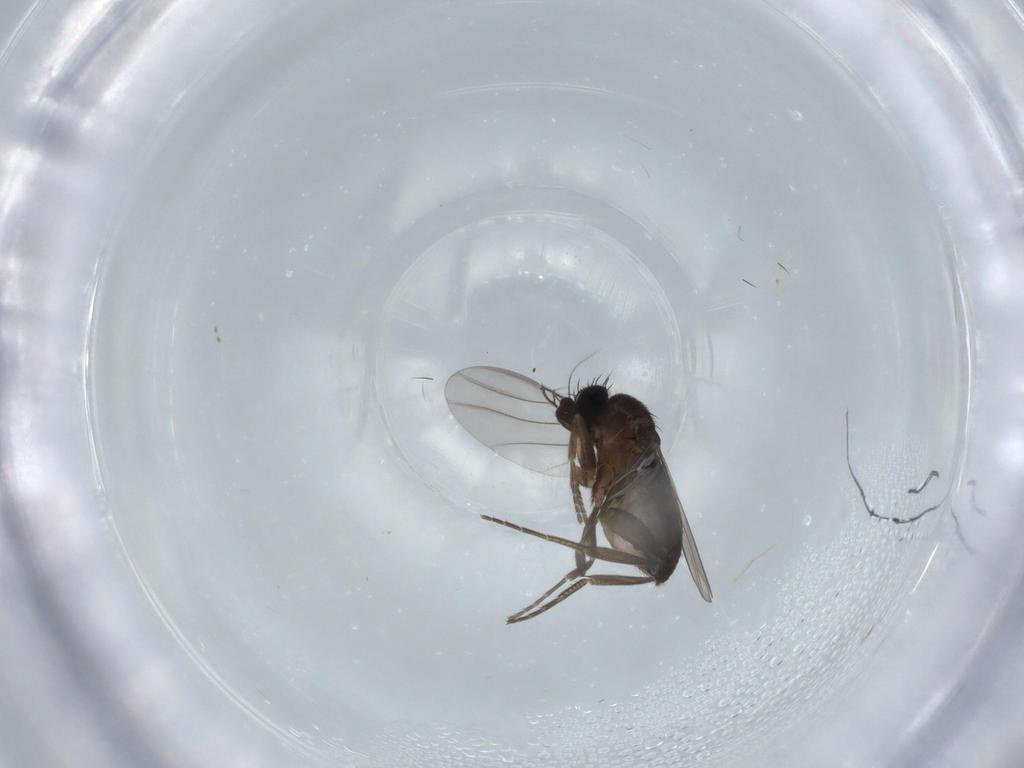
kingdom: Animalia
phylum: Arthropoda
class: Insecta
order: Diptera
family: Phoridae
